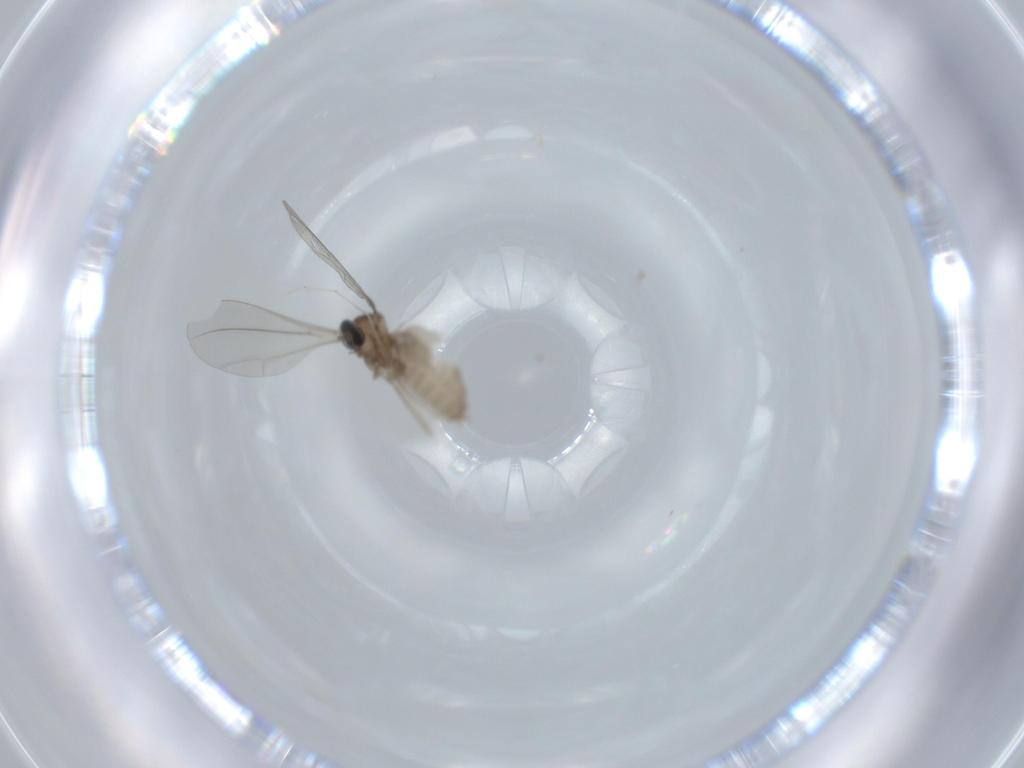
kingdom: Animalia
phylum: Arthropoda
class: Insecta
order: Diptera
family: Cecidomyiidae
